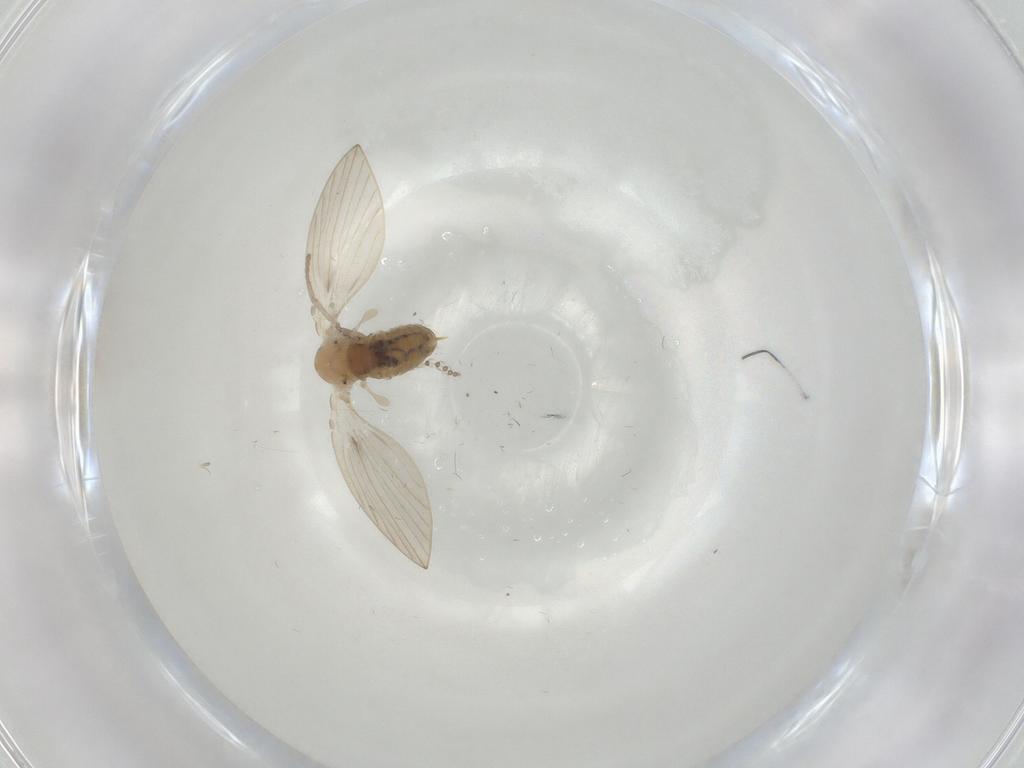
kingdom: Animalia
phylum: Arthropoda
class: Insecta
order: Diptera
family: Psychodidae
